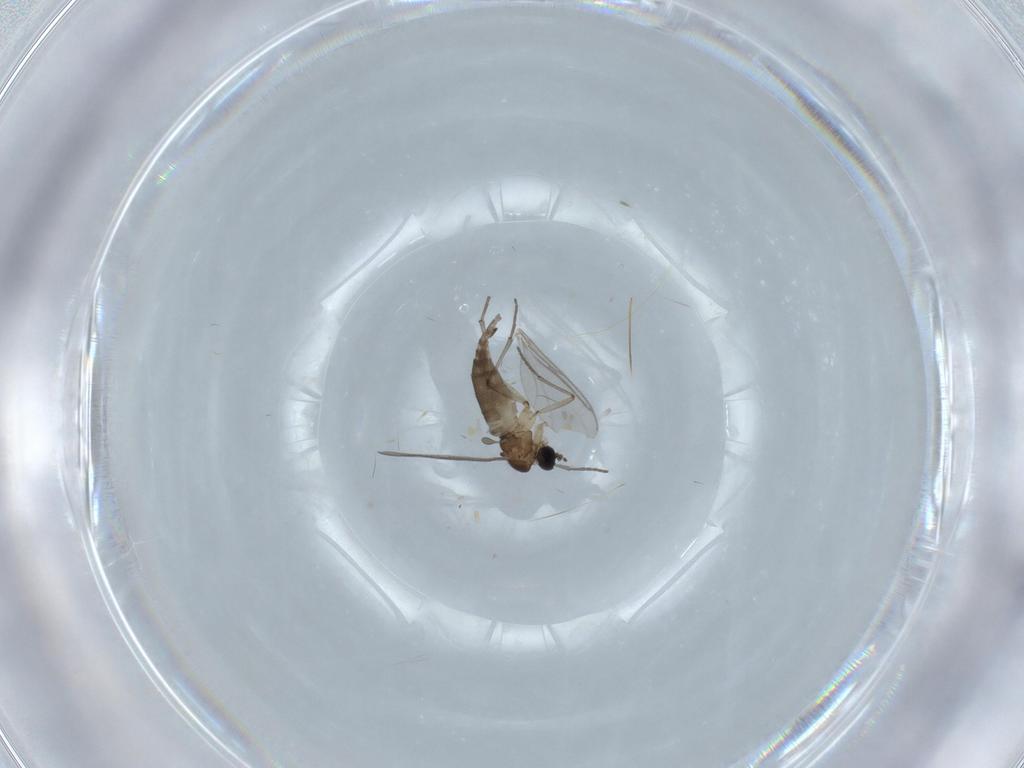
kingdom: Animalia
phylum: Arthropoda
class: Insecta
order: Diptera
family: Mycetophilidae
